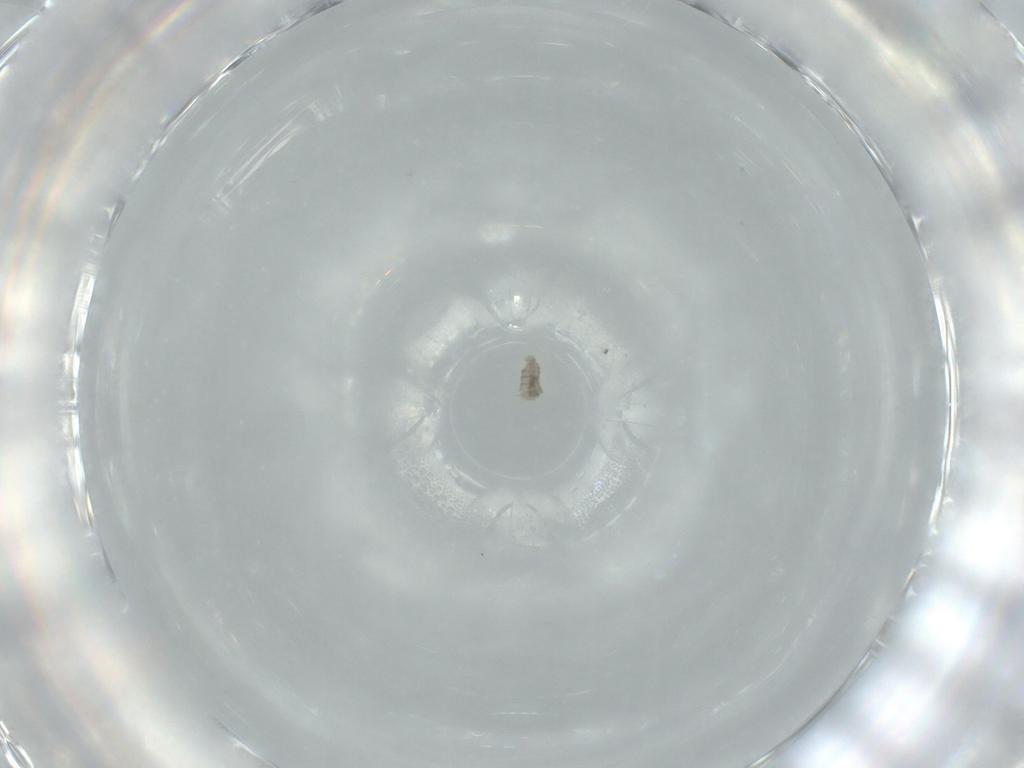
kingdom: Animalia
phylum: Arthropoda
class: Insecta
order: Diptera
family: Cecidomyiidae
